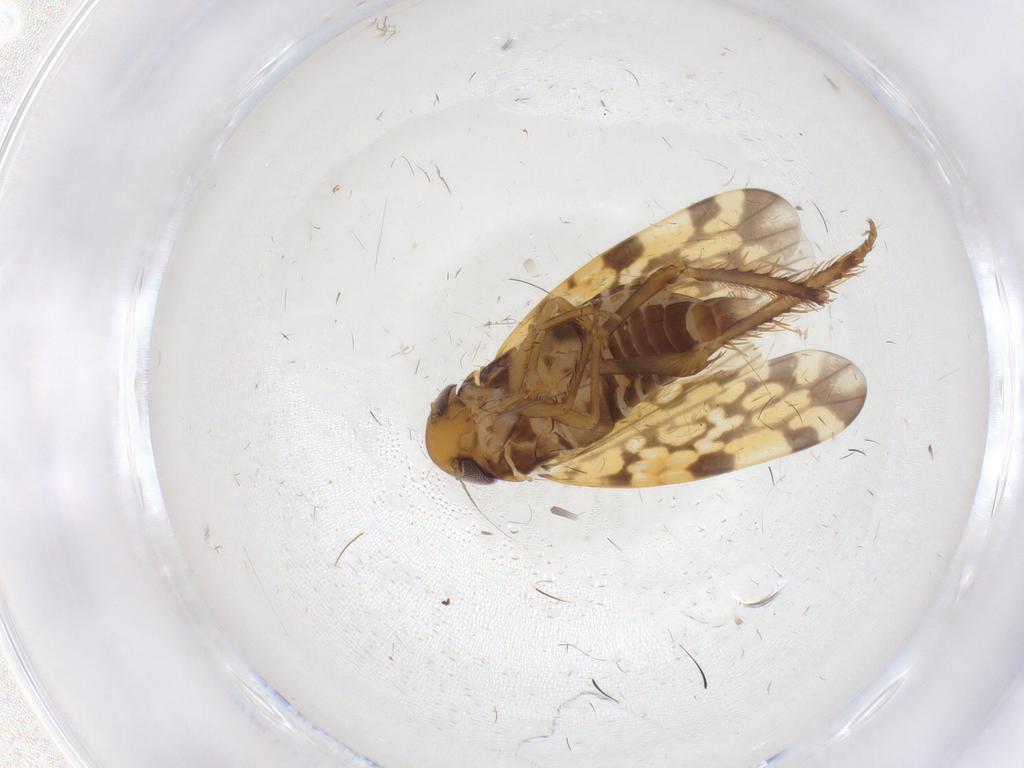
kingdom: Animalia
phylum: Arthropoda
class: Insecta
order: Hemiptera
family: Cicadellidae
